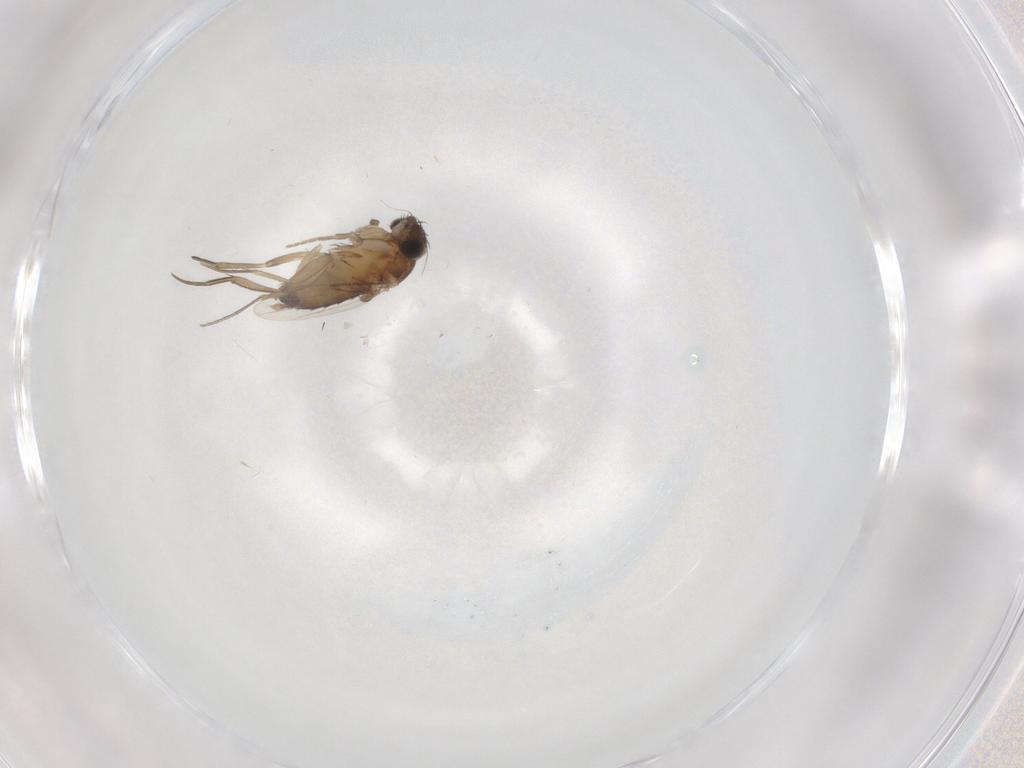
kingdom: Animalia
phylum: Arthropoda
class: Insecta
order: Diptera
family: Phoridae
